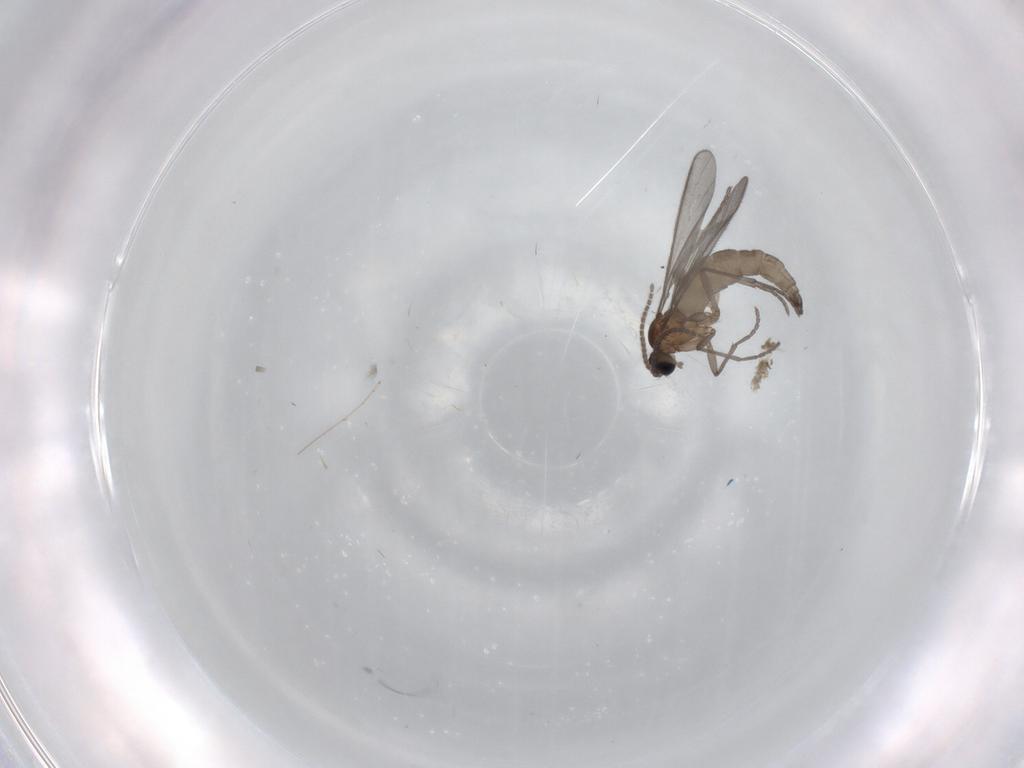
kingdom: Animalia
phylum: Arthropoda
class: Insecta
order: Diptera
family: Sciaridae
